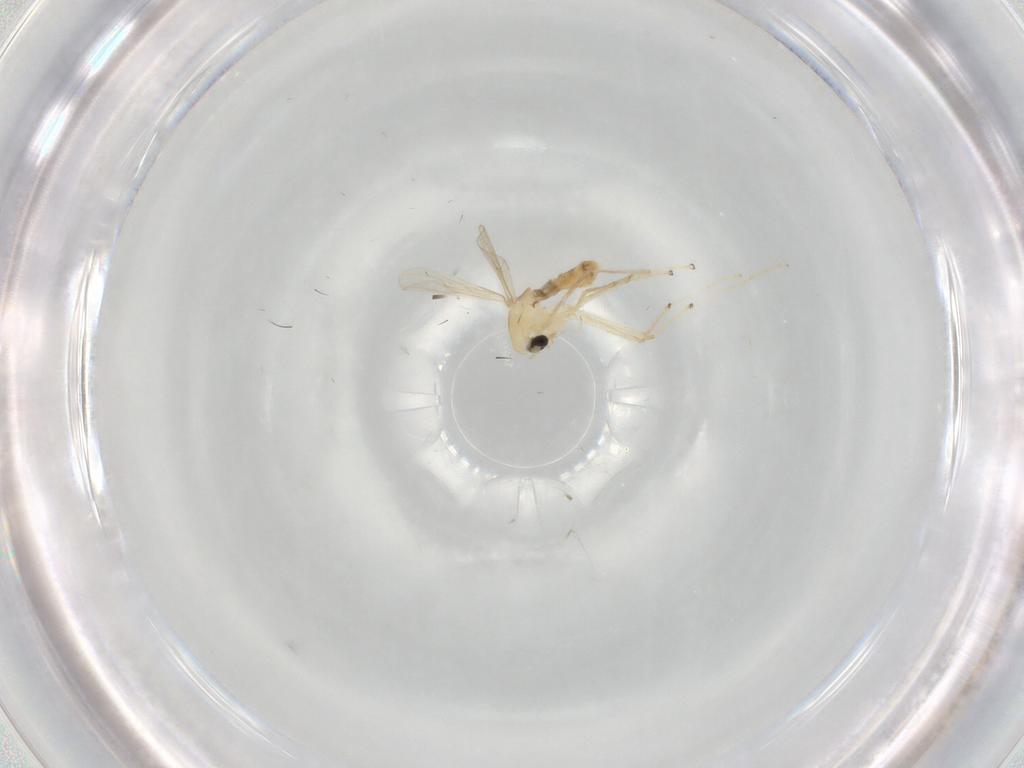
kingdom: Animalia
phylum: Arthropoda
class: Insecta
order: Diptera
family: Chironomidae
